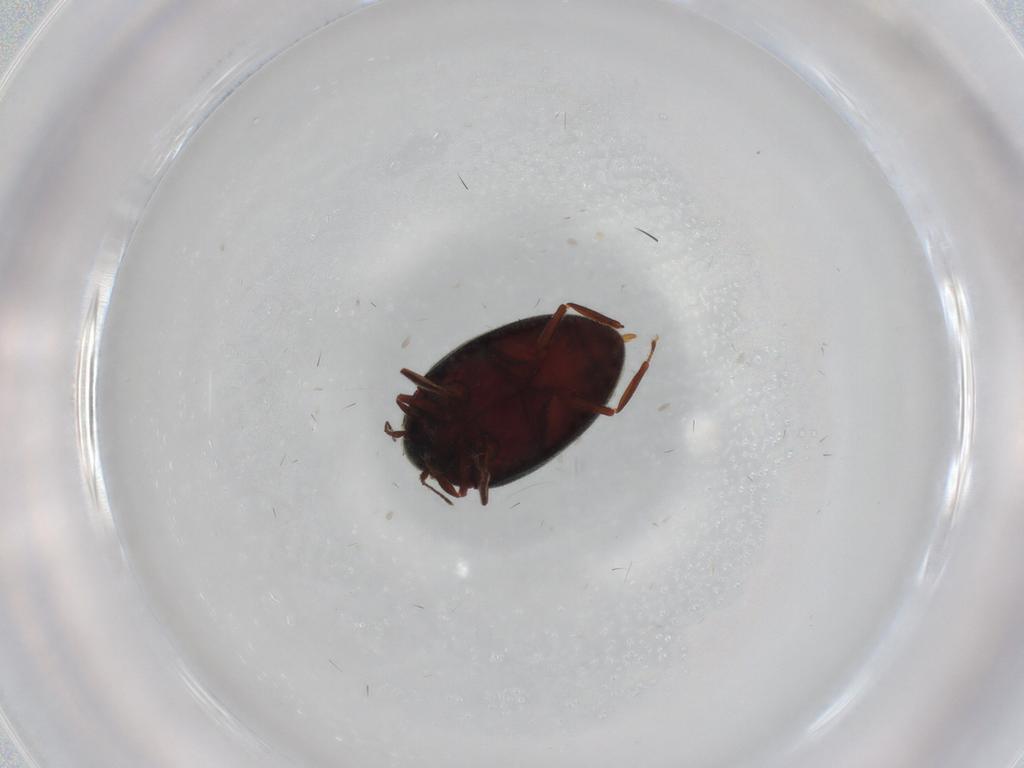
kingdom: Animalia
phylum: Arthropoda
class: Insecta
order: Coleoptera
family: Limnichidae
